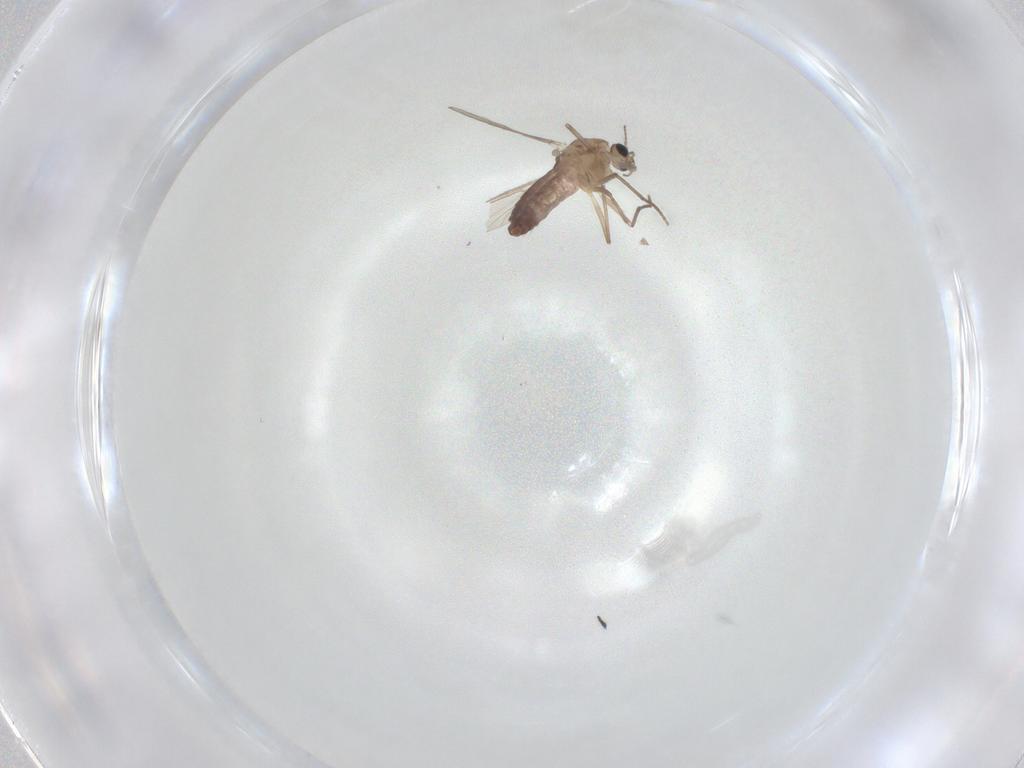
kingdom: Animalia
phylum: Arthropoda
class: Insecta
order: Diptera
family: Chironomidae
